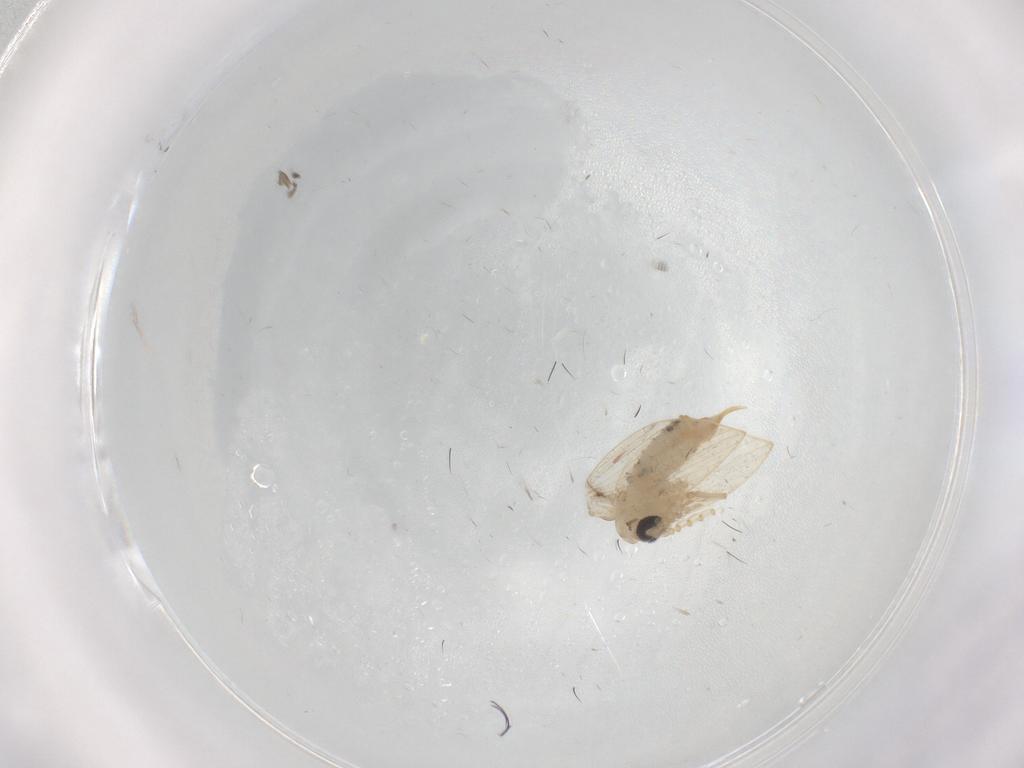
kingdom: Animalia
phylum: Arthropoda
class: Insecta
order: Diptera
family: Psychodidae
